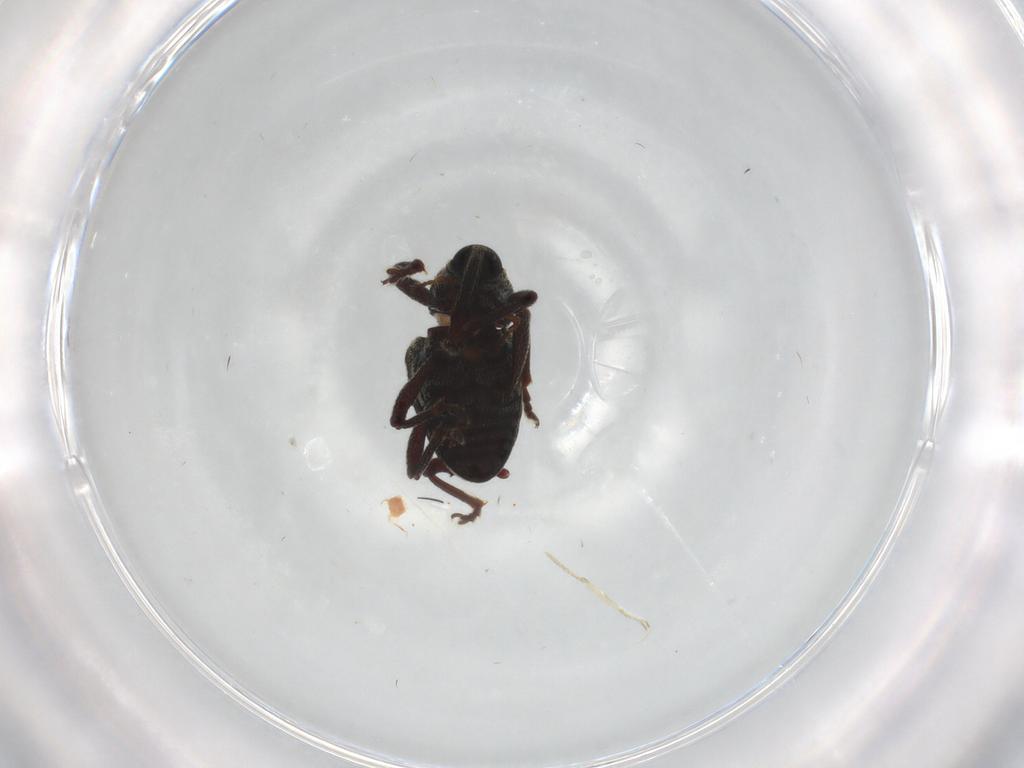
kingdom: Animalia
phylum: Arthropoda
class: Insecta
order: Coleoptera
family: Curculionidae
